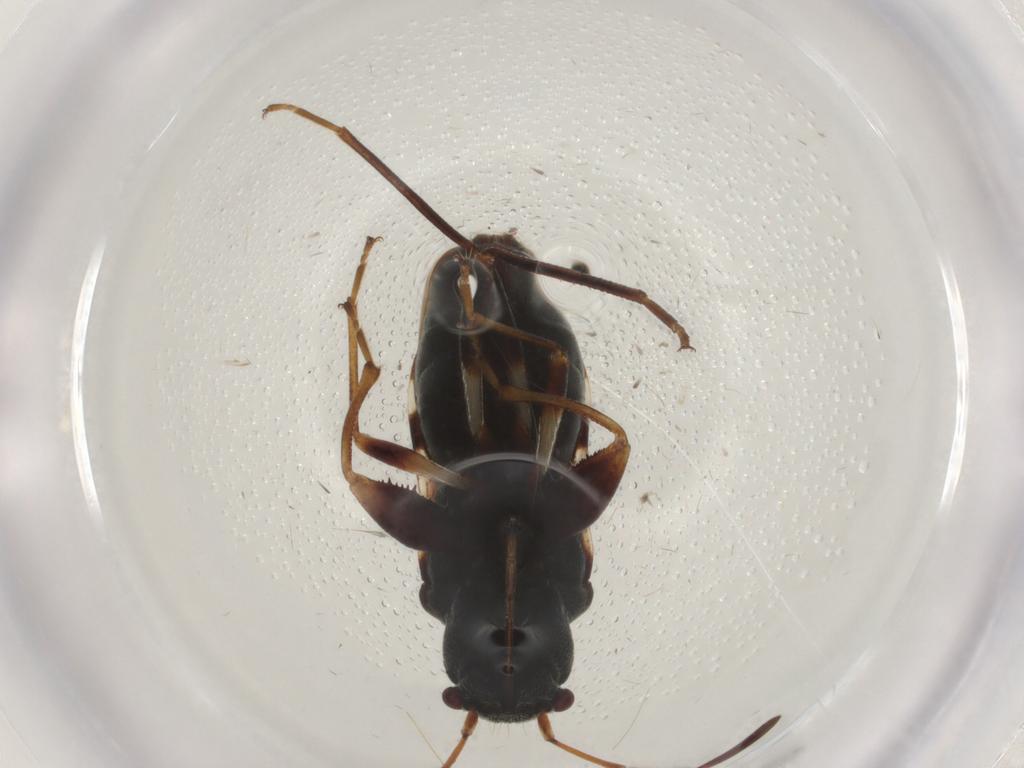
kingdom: Animalia
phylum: Arthropoda
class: Insecta
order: Hemiptera
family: Rhyparochromidae
